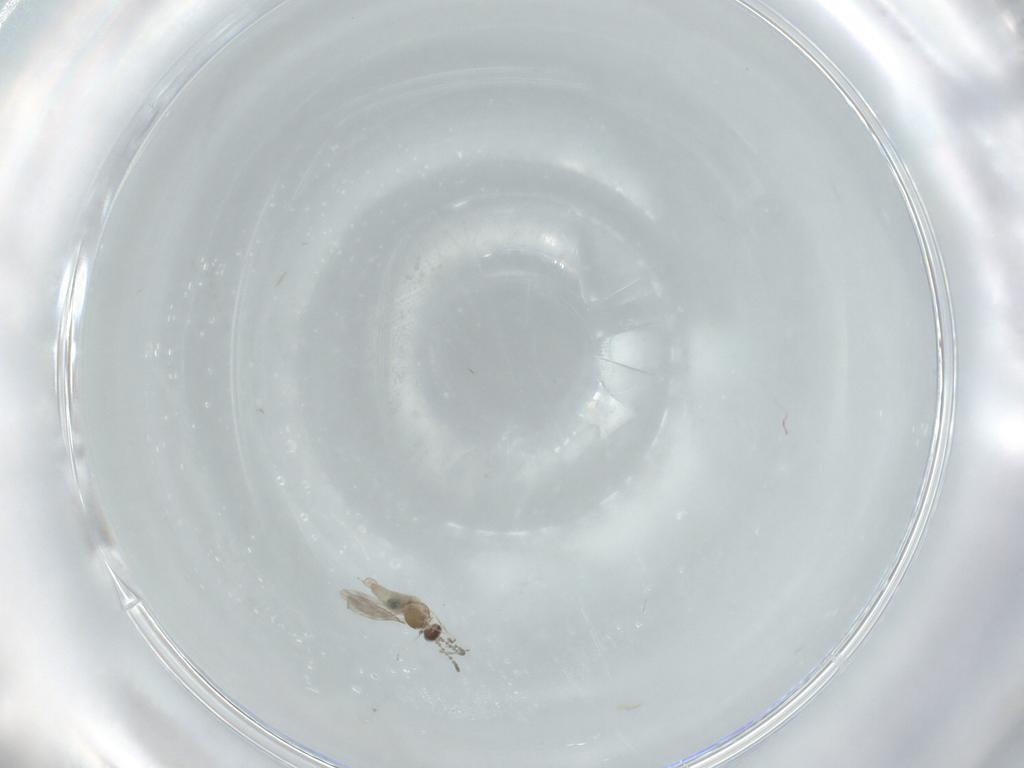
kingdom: Animalia
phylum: Arthropoda
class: Insecta
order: Diptera
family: Cecidomyiidae
